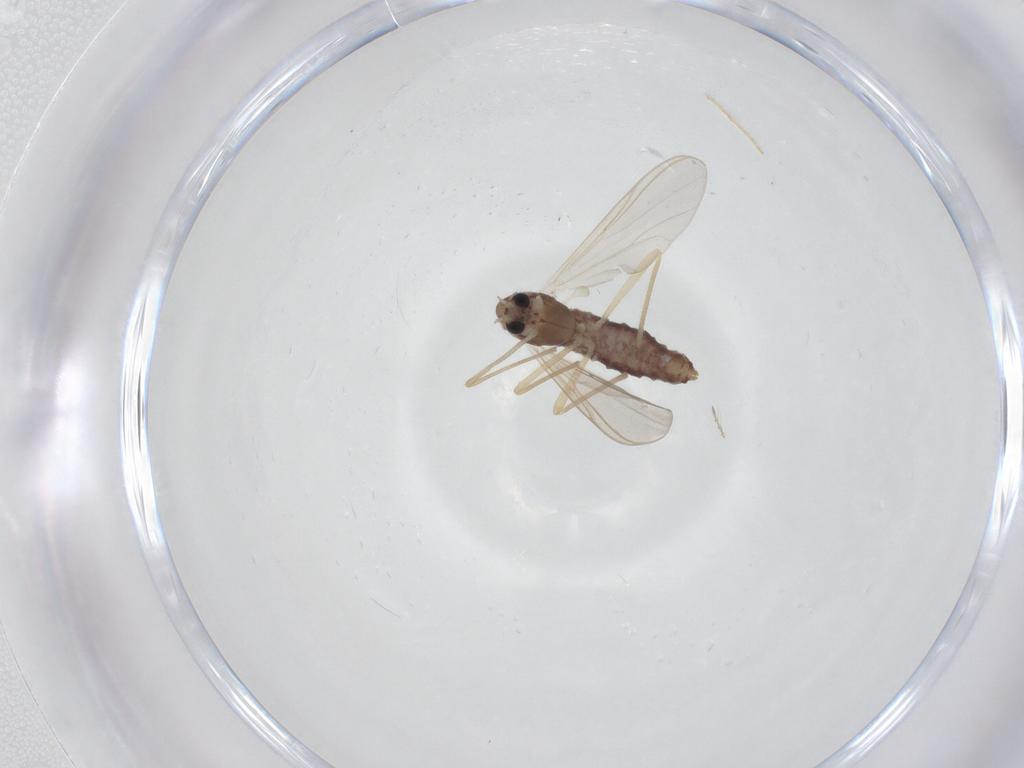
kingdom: Animalia
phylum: Arthropoda
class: Insecta
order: Diptera
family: Chironomidae
